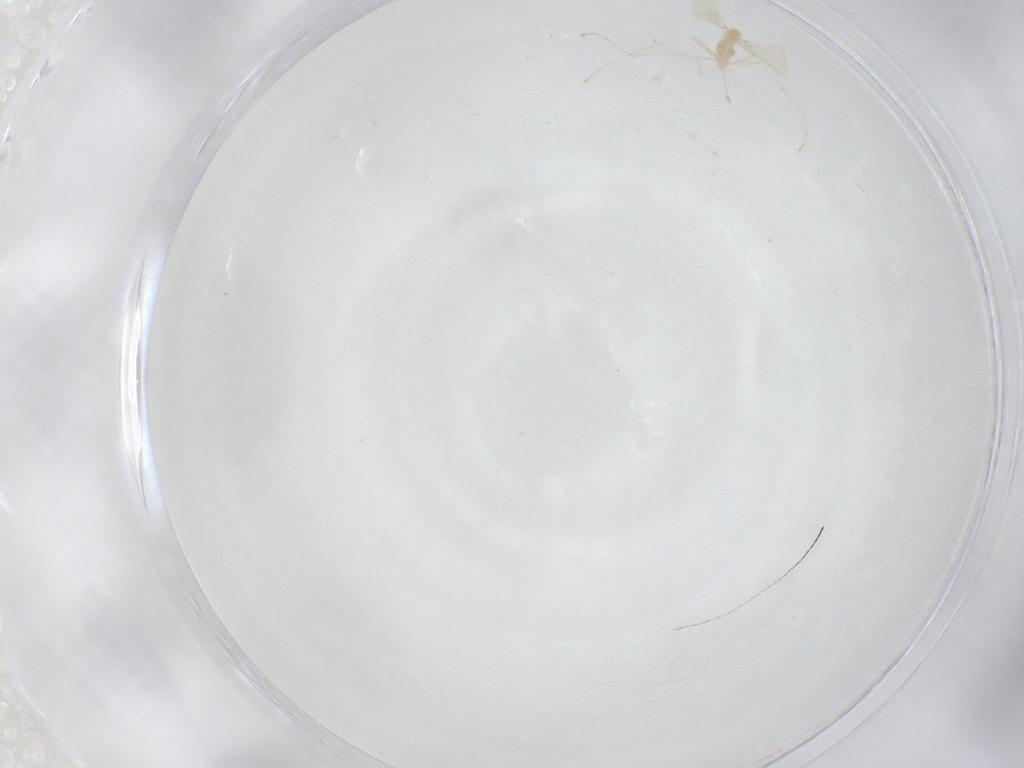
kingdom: Animalia
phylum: Arthropoda
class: Insecta
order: Diptera
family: Cecidomyiidae
